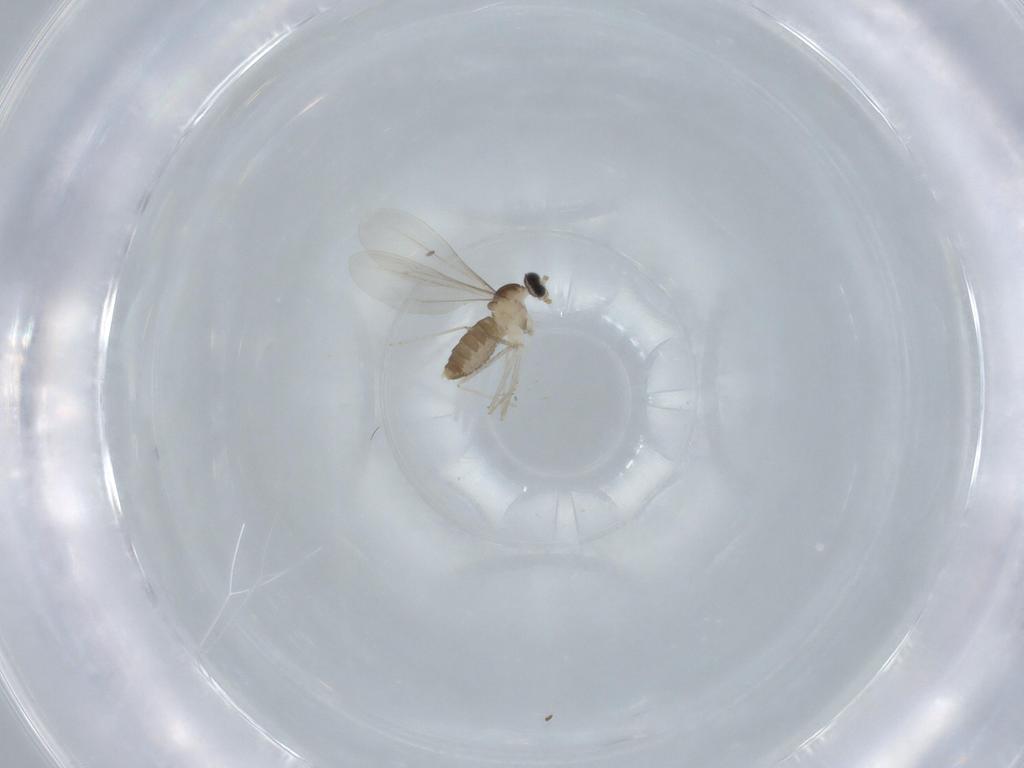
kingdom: Animalia
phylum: Arthropoda
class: Insecta
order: Diptera
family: Cecidomyiidae
